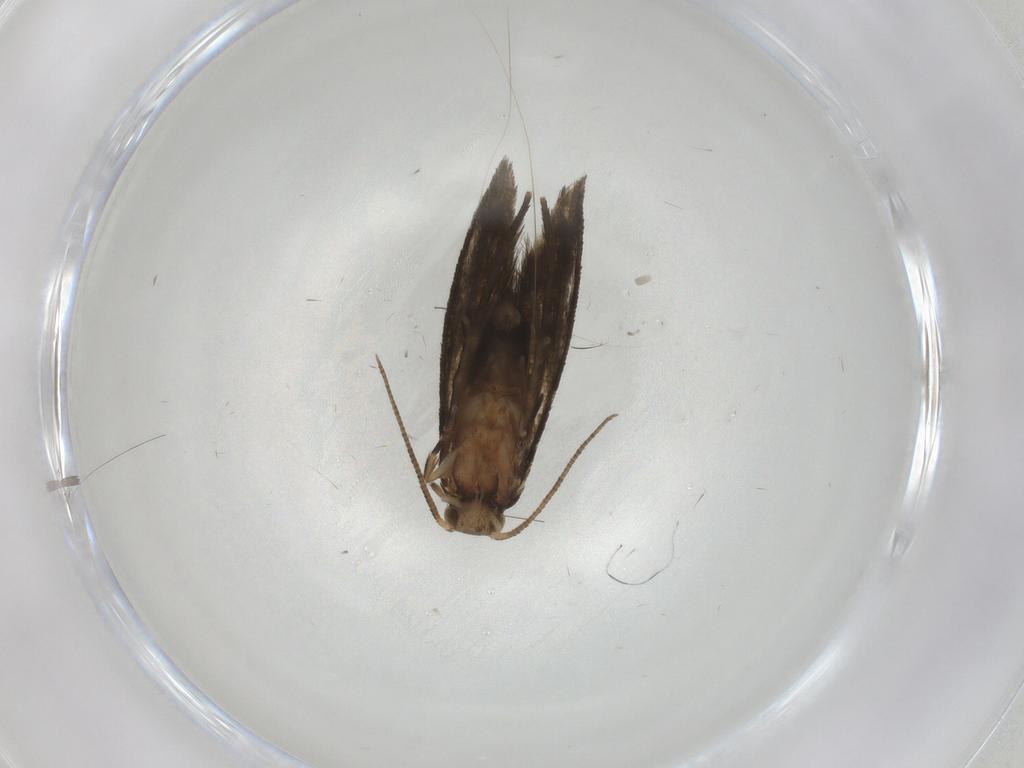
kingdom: Animalia
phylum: Arthropoda
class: Insecta
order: Lepidoptera
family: Tineidae
